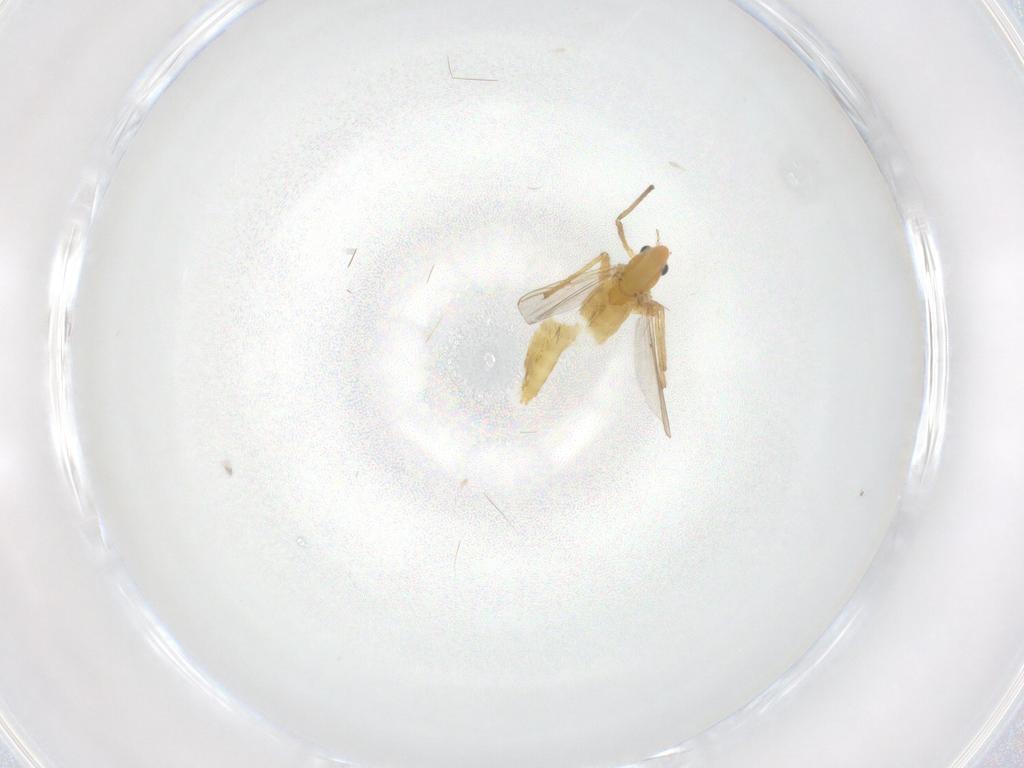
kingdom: Animalia
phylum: Arthropoda
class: Insecta
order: Diptera
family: Chironomidae
